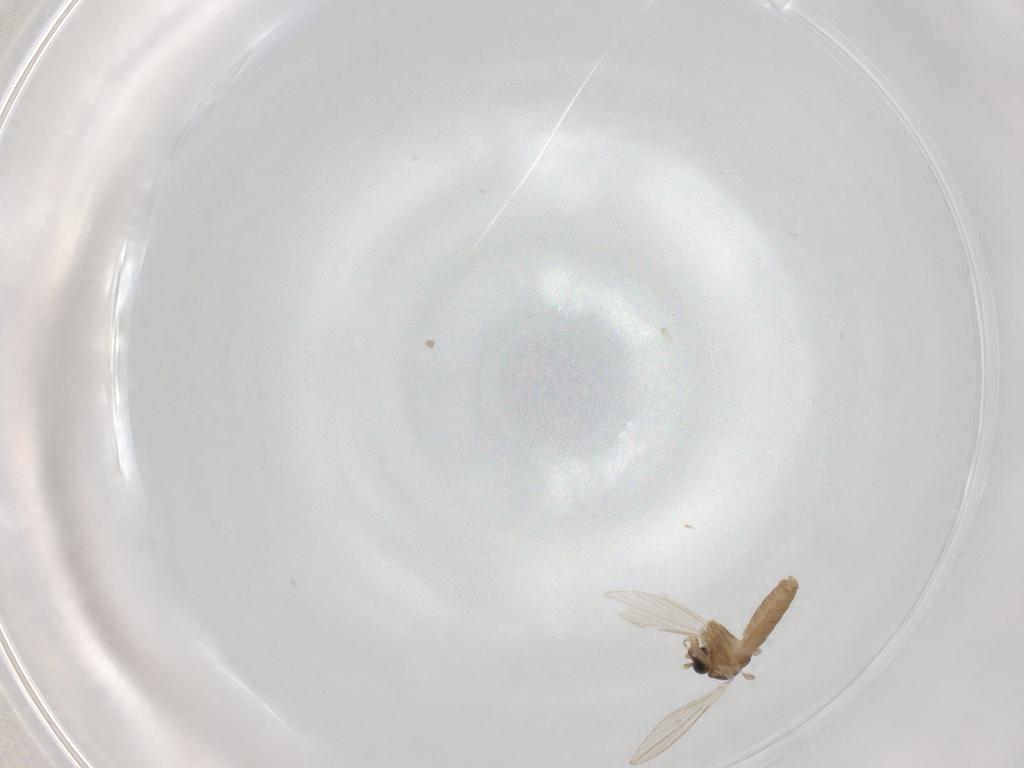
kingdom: Animalia
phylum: Arthropoda
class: Insecta
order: Diptera
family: Psychodidae
